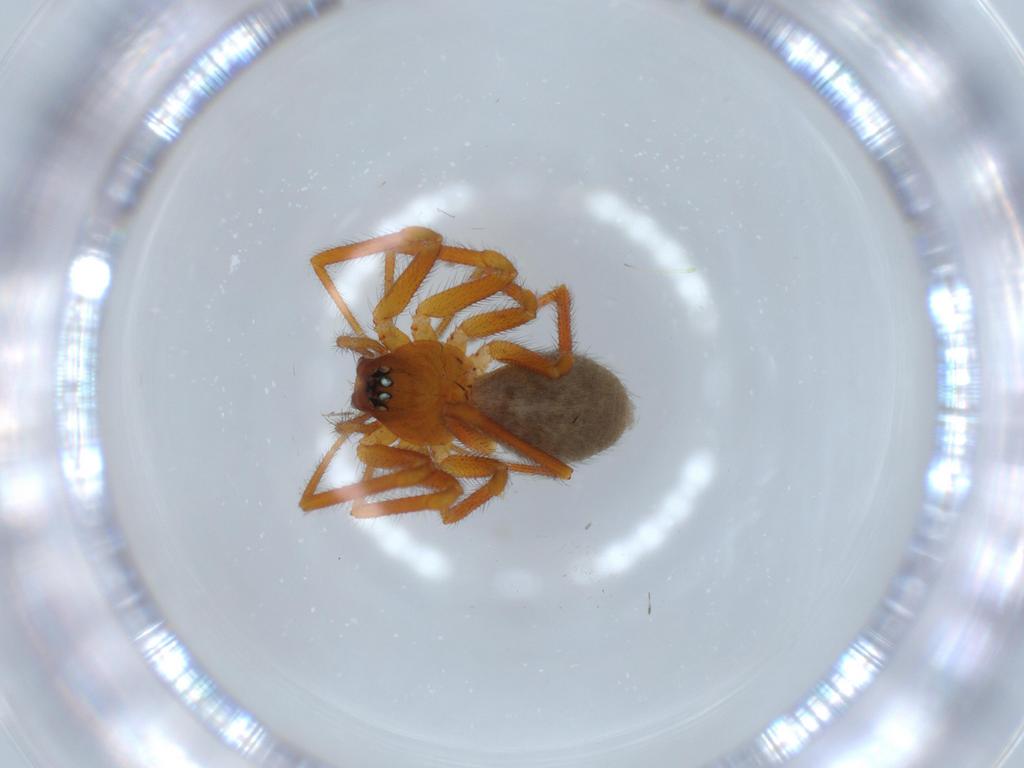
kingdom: Animalia
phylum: Arthropoda
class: Arachnida
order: Araneae
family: Linyphiidae
